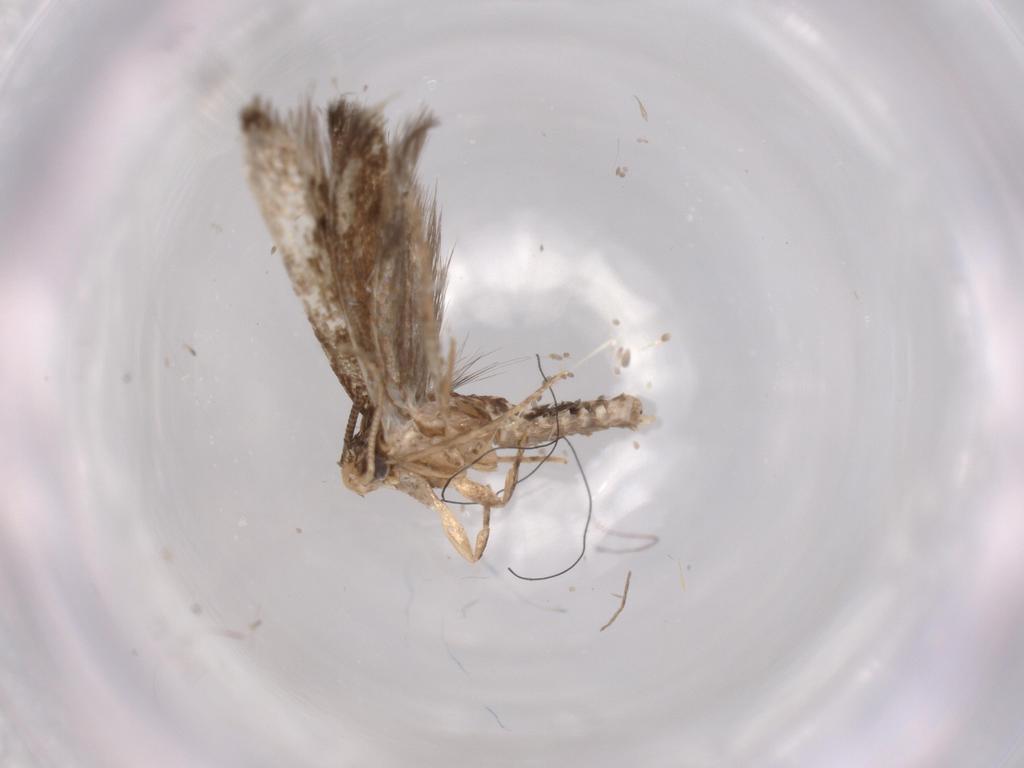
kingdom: Animalia
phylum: Arthropoda
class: Insecta
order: Lepidoptera
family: Tineidae
